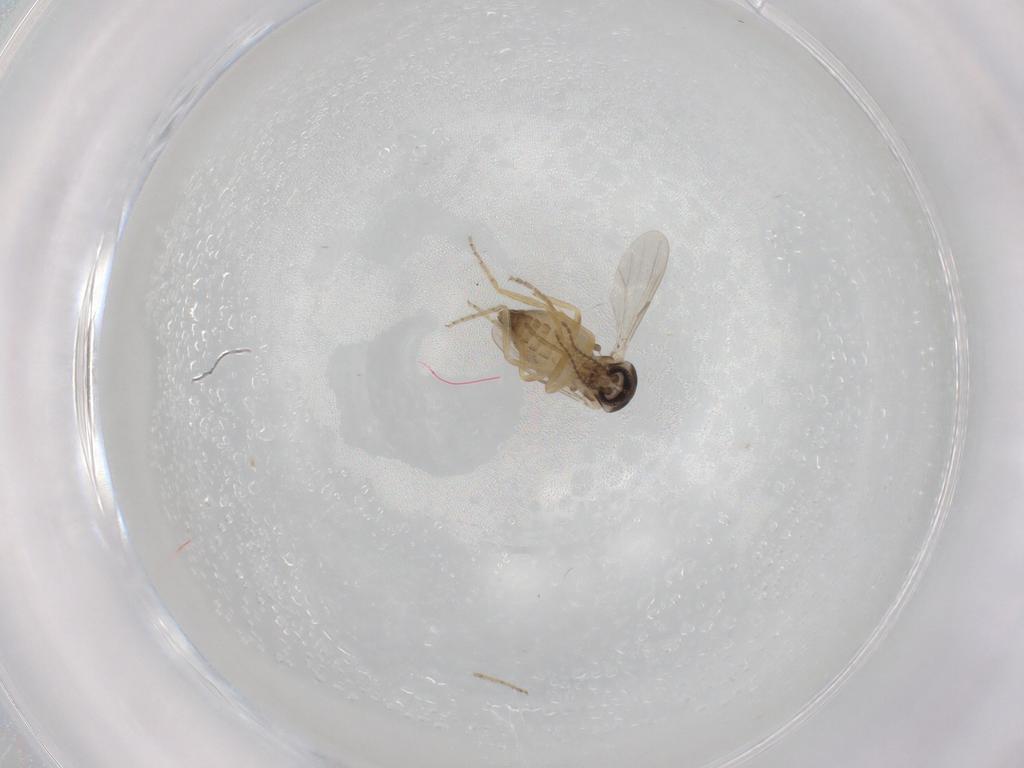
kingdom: Animalia
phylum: Arthropoda
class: Insecta
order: Diptera
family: Ceratopogonidae
